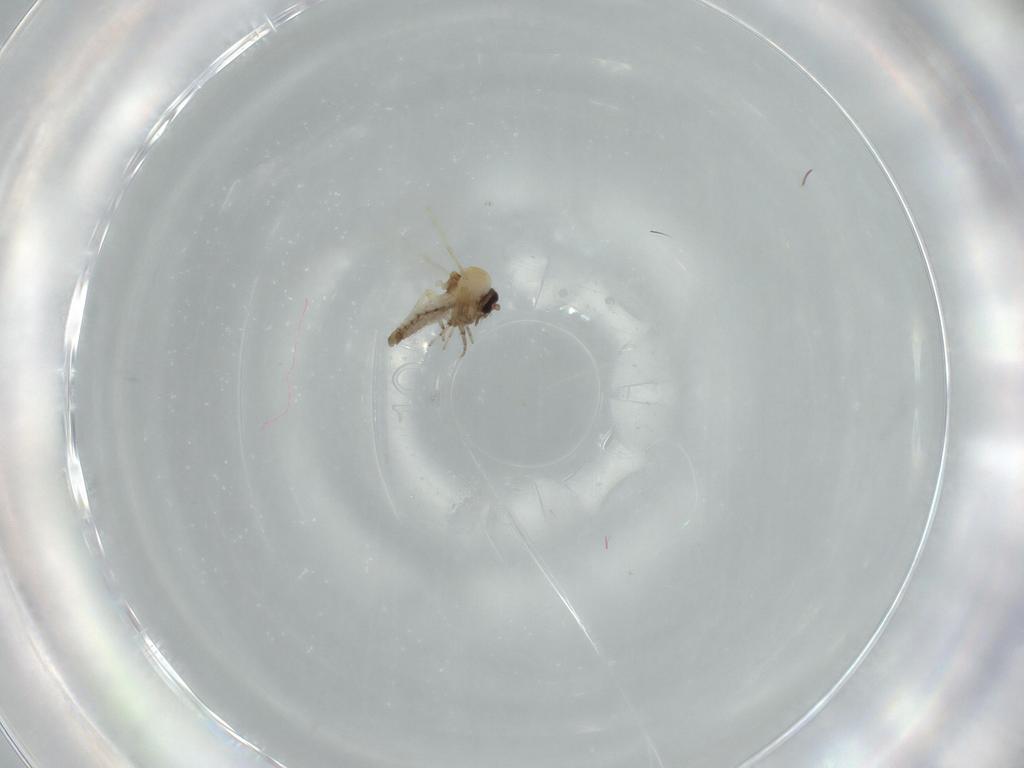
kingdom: Animalia
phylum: Arthropoda
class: Insecta
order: Diptera
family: Ceratopogonidae
